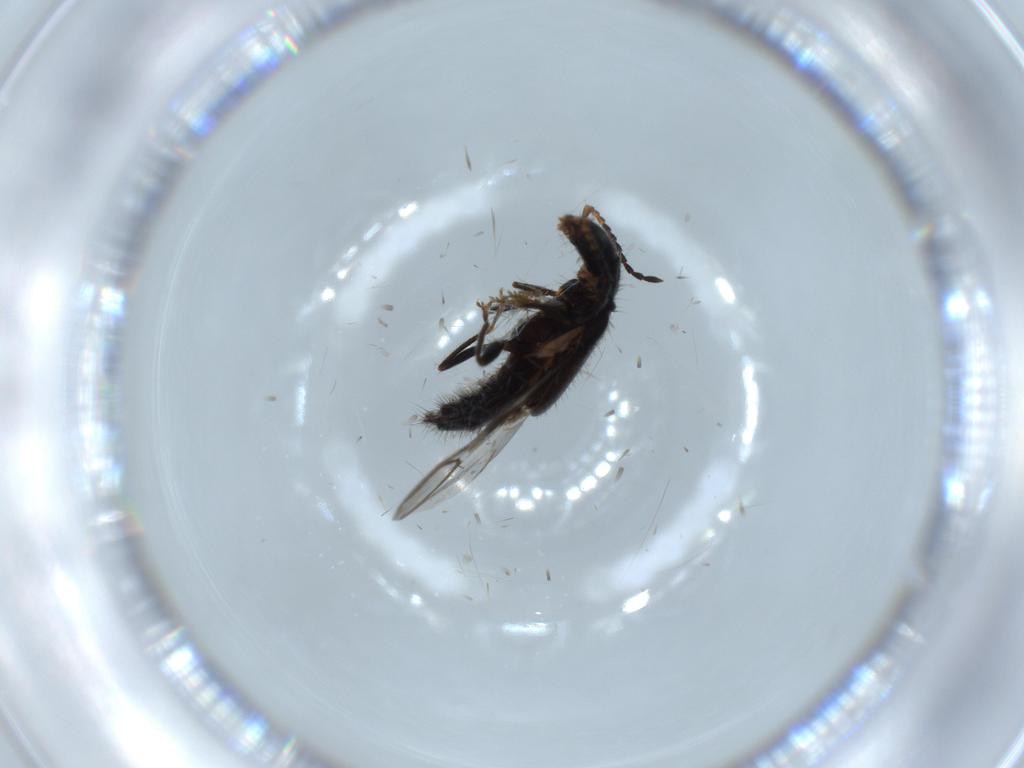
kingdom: Animalia
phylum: Arthropoda
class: Insecta
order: Coleoptera
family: Melyridae
